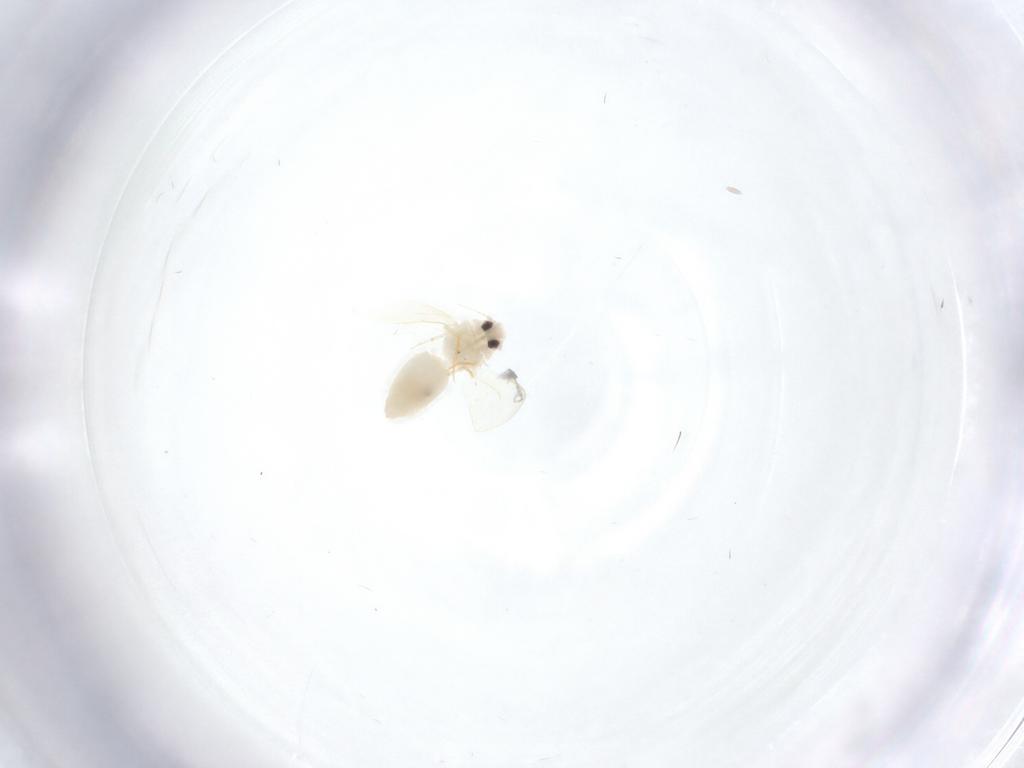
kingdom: Animalia
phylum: Arthropoda
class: Insecta
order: Hemiptera
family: Aleyrodidae
